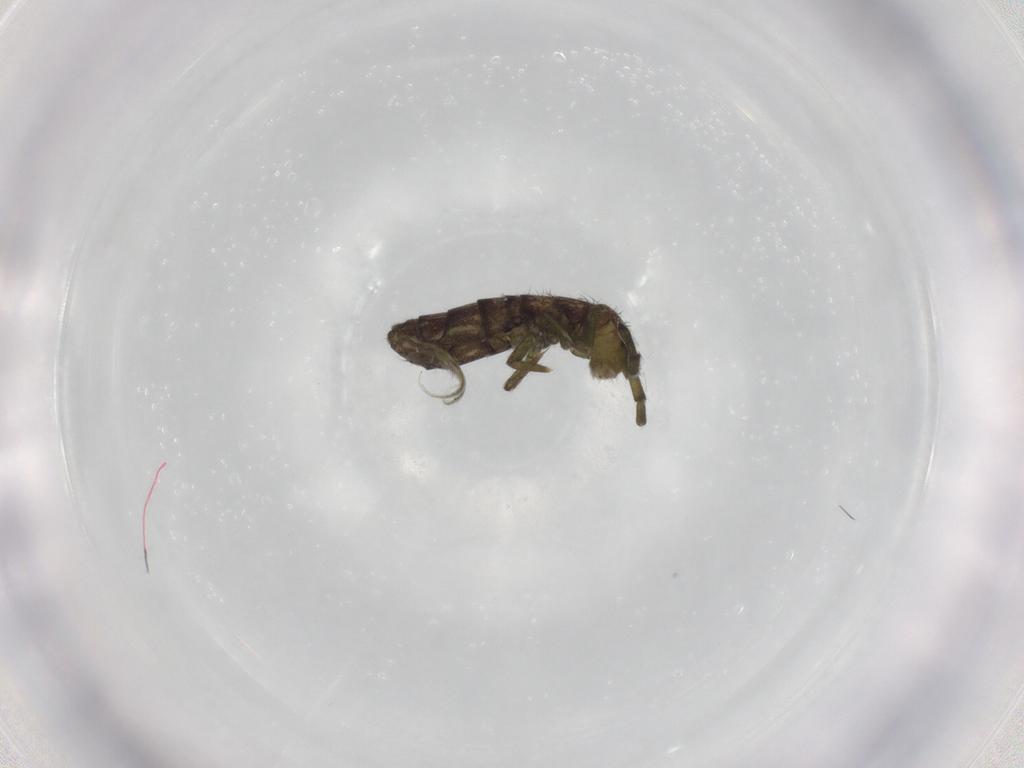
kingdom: Animalia
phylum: Arthropoda
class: Collembola
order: Entomobryomorpha
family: Isotomidae
